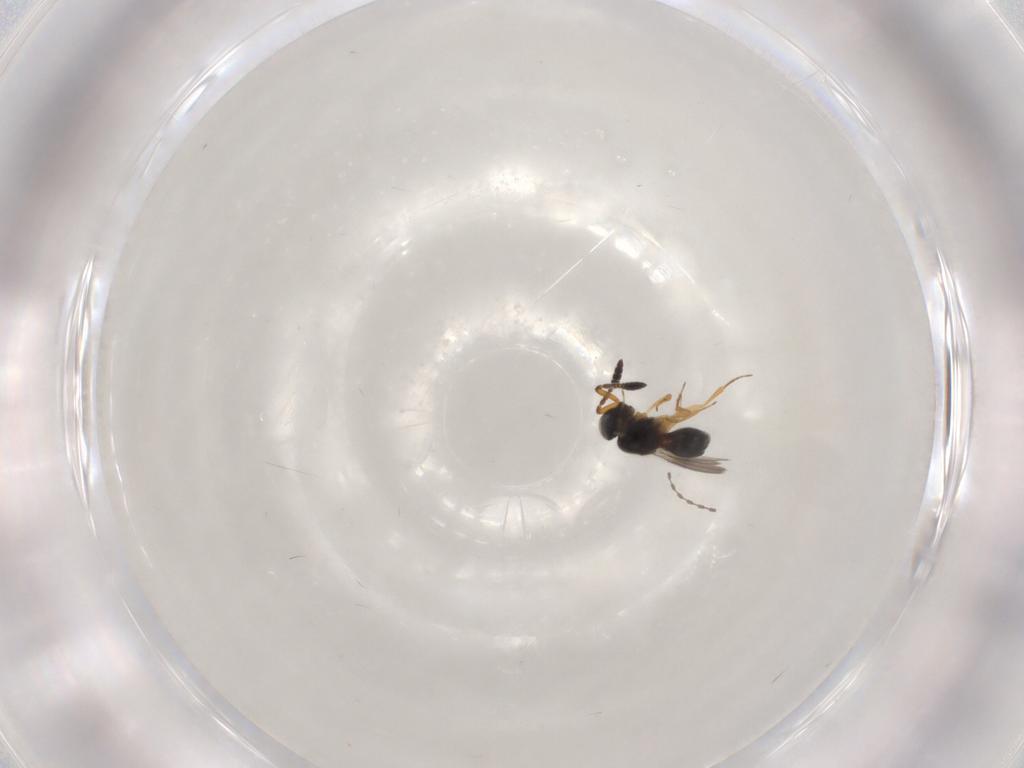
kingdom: Animalia
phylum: Arthropoda
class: Insecta
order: Hymenoptera
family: Scelionidae
